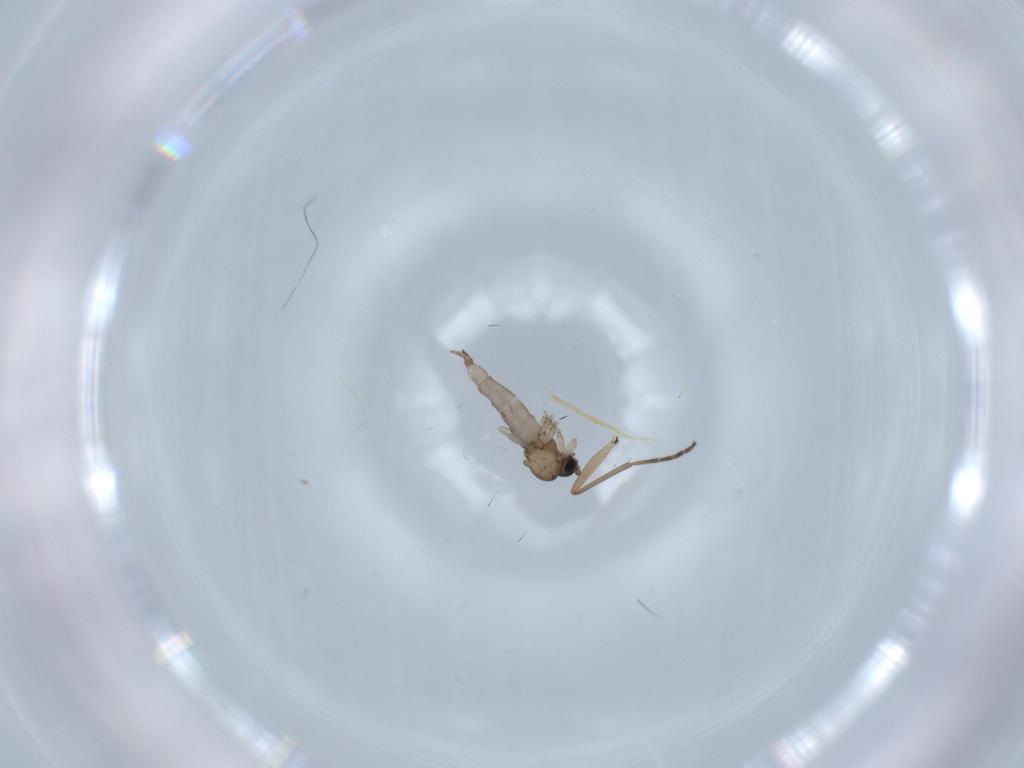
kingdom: Animalia
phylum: Arthropoda
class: Insecta
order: Diptera
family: Sciaridae
